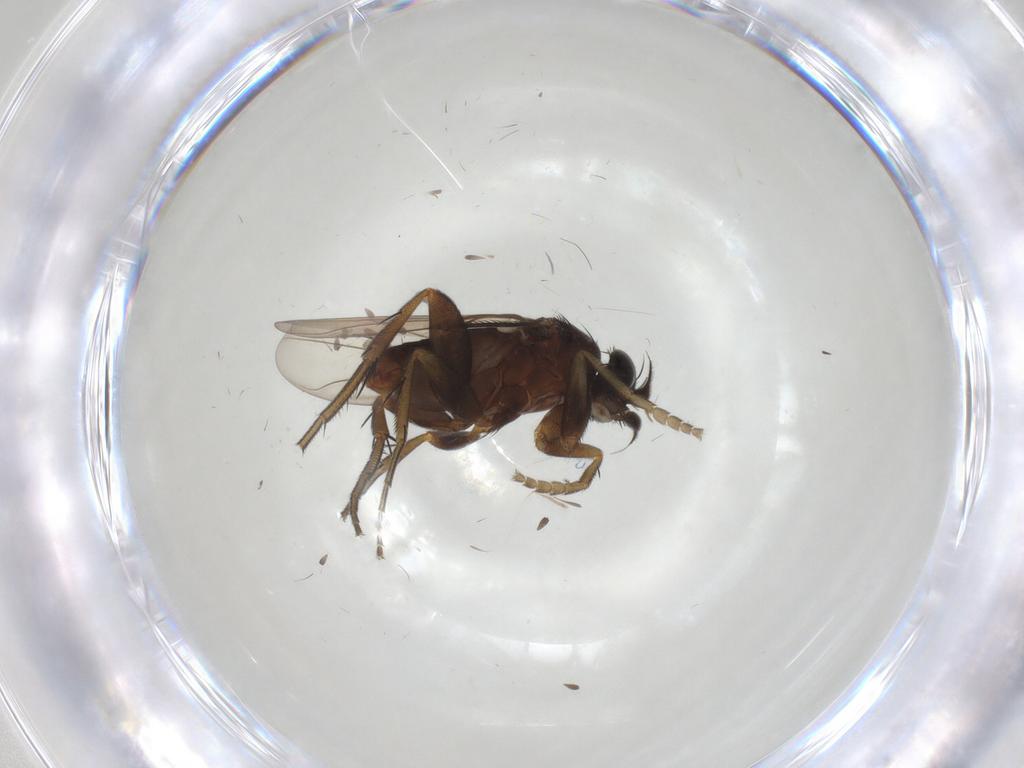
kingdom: Animalia
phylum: Arthropoda
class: Insecta
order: Diptera
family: Phoridae
